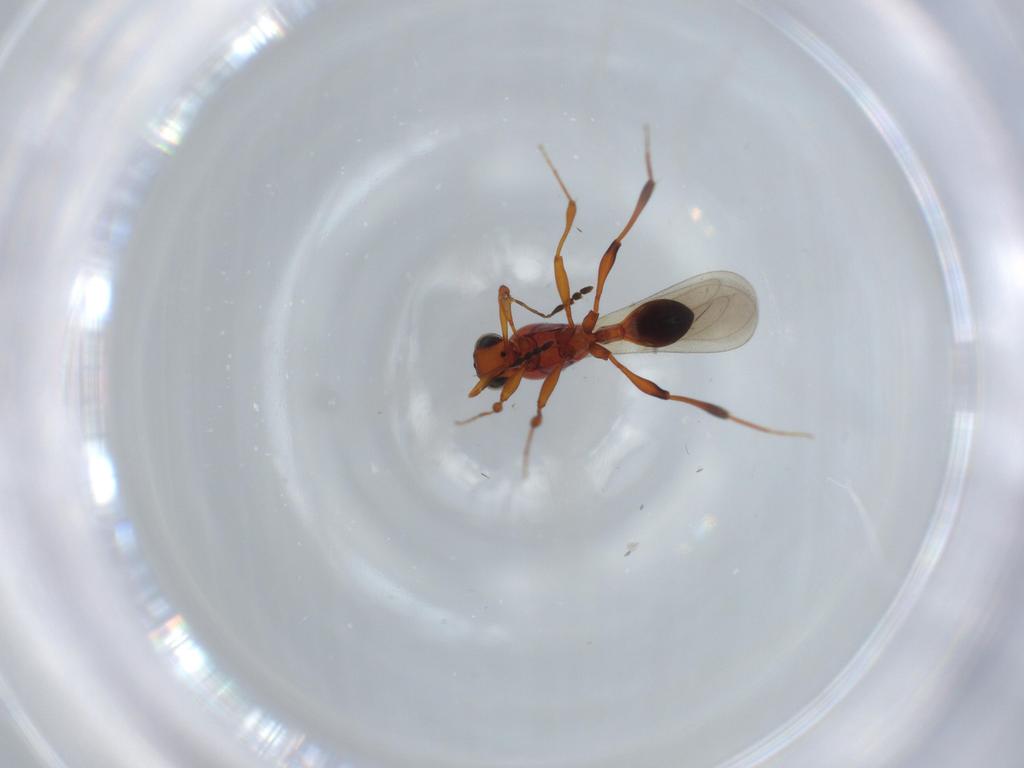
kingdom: Animalia
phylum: Arthropoda
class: Insecta
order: Hymenoptera
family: Platygastridae
